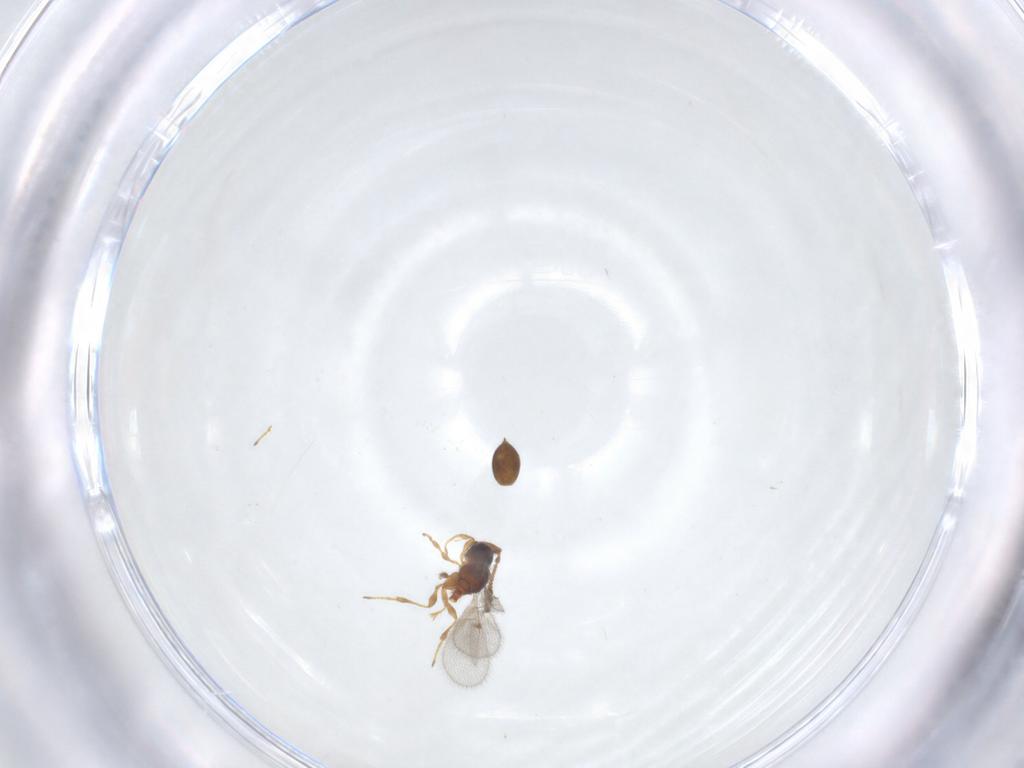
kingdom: Animalia
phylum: Arthropoda
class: Insecta
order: Hymenoptera
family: Diapriidae
